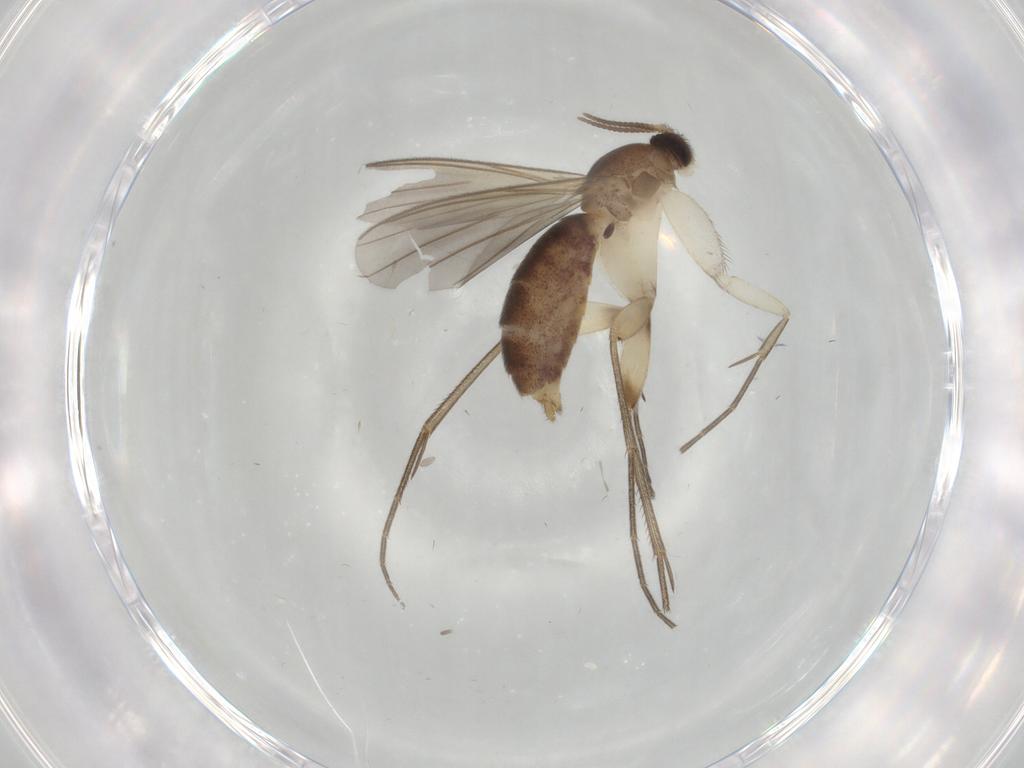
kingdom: Animalia
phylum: Arthropoda
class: Insecta
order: Diptera
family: Mycetophilidae
